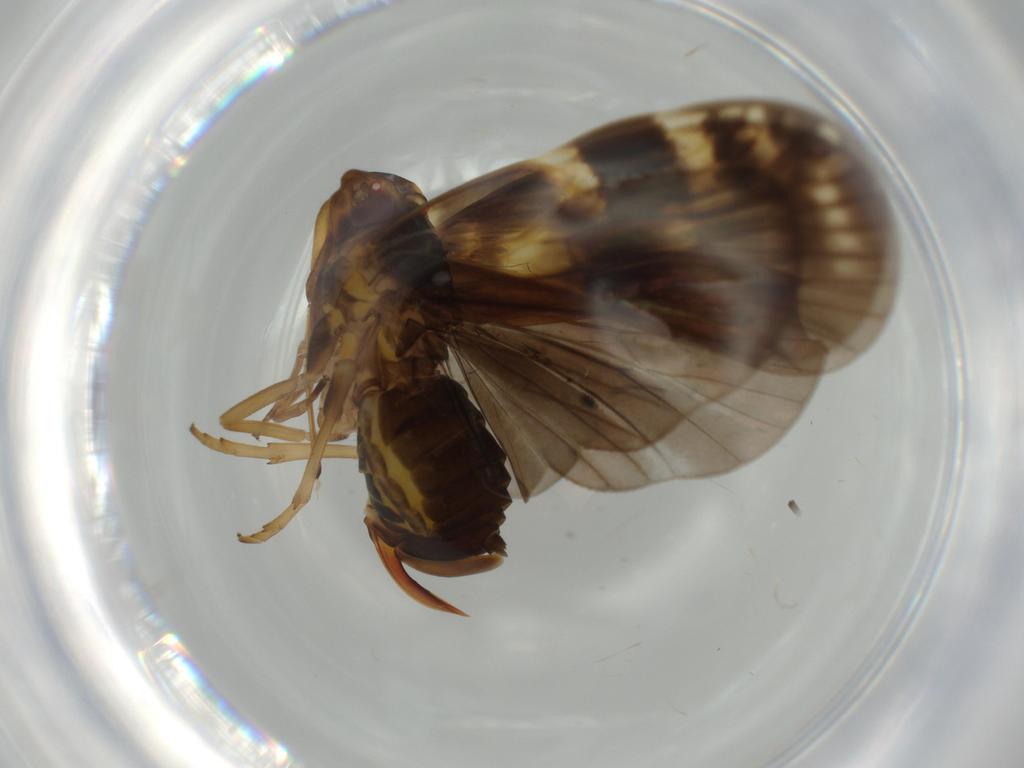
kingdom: Animalia
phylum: Arthropoda
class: Insecta
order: Hemiptera
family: Cixiidae
